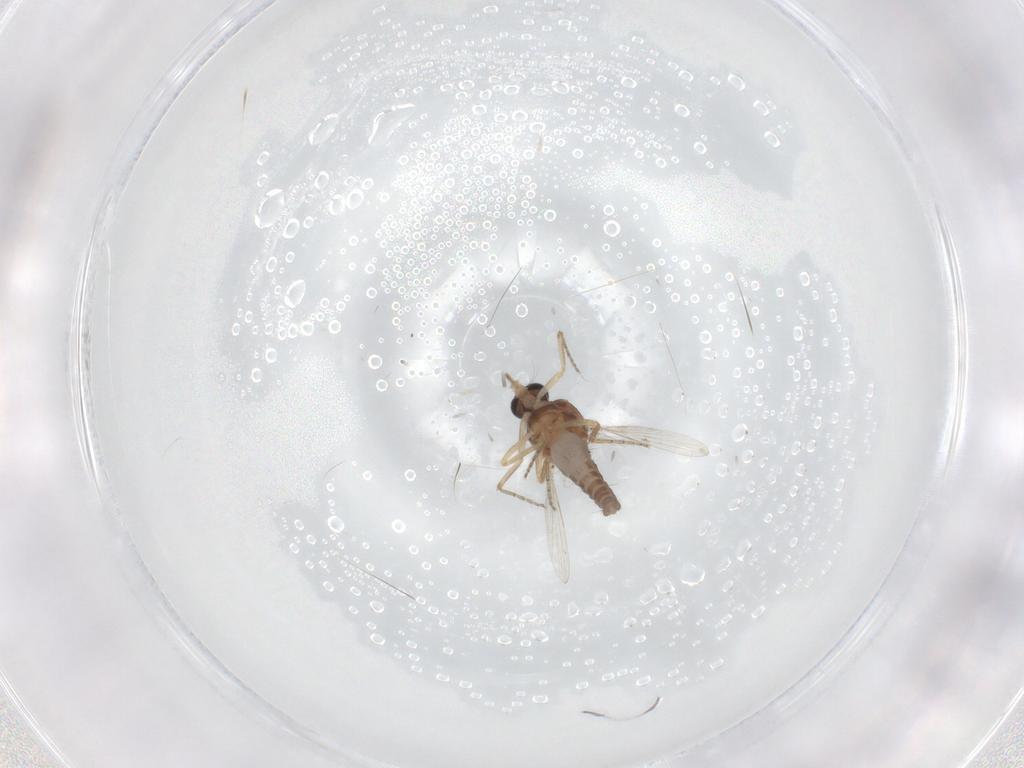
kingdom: Animalia
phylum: Arthropoda
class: Insecta
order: Diptera
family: Ceratopogonidae
